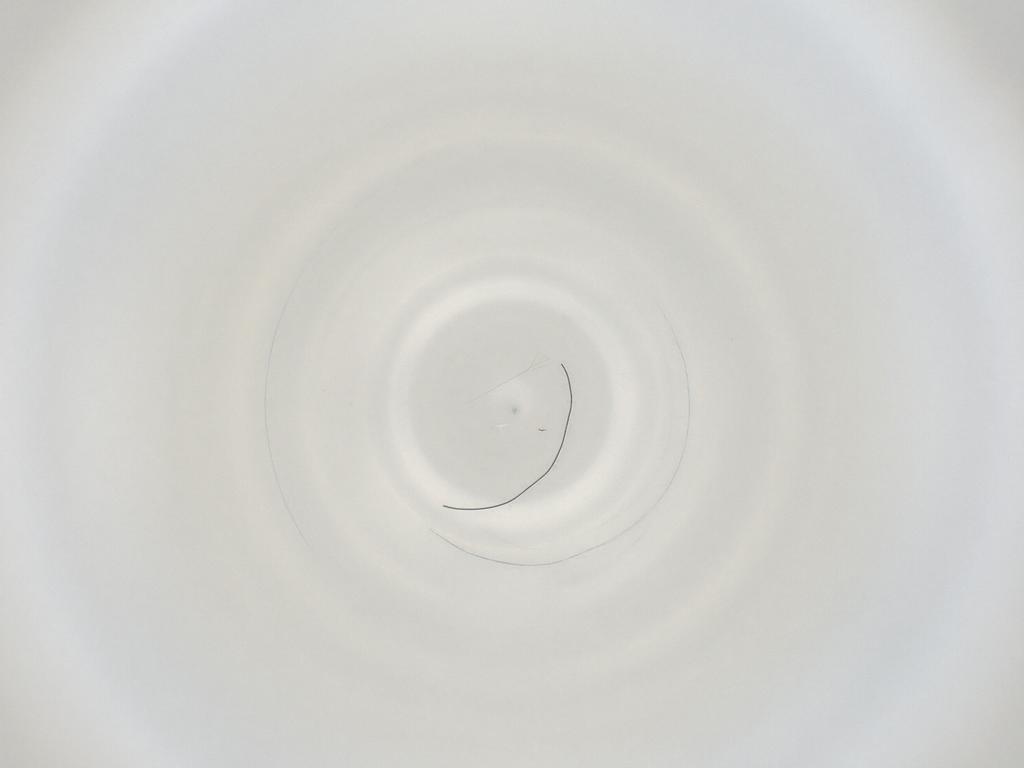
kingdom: Animalia
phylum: Arthropoda
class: Insecta
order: Diptera
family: Cecidomyiidae
